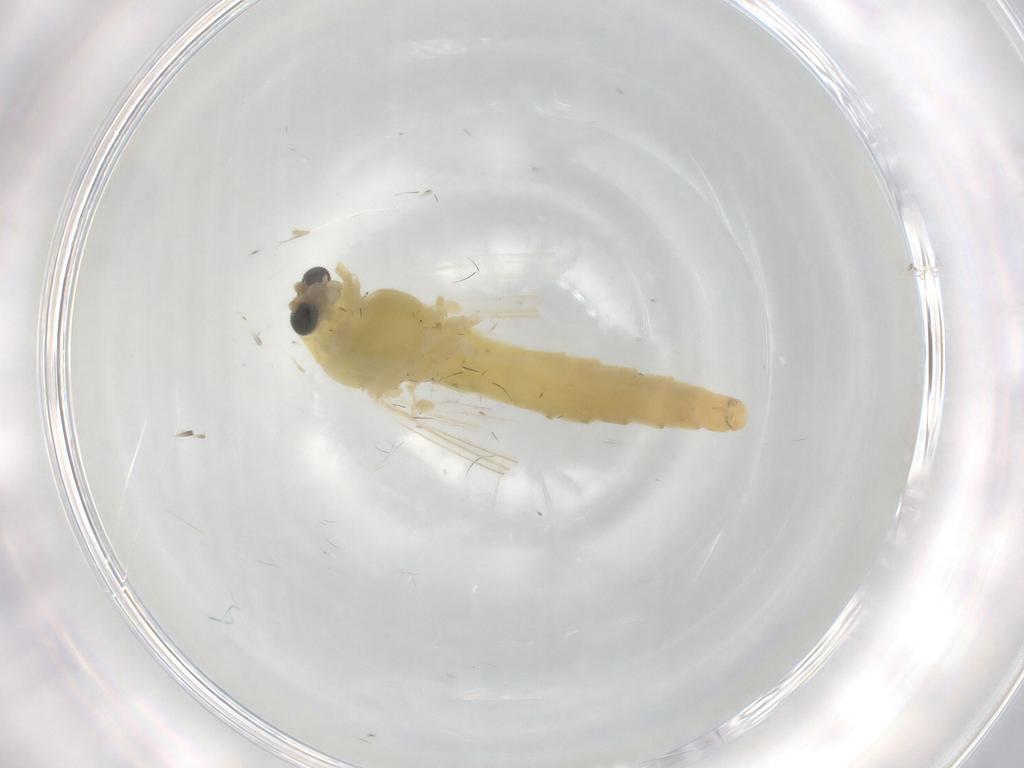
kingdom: Animalia
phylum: Arthropoda
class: Insecta
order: Diptera
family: Chironomidae
